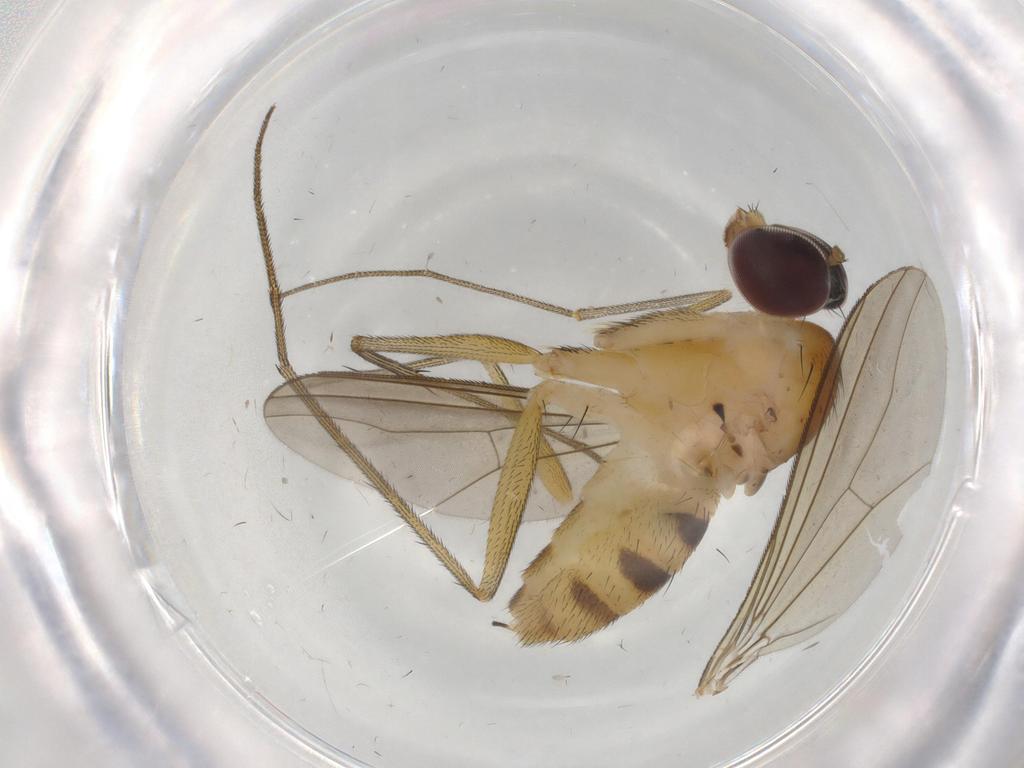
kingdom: Animalia
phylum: Arthropoda
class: Insecta
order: Diptera
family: Dolichopodidae
